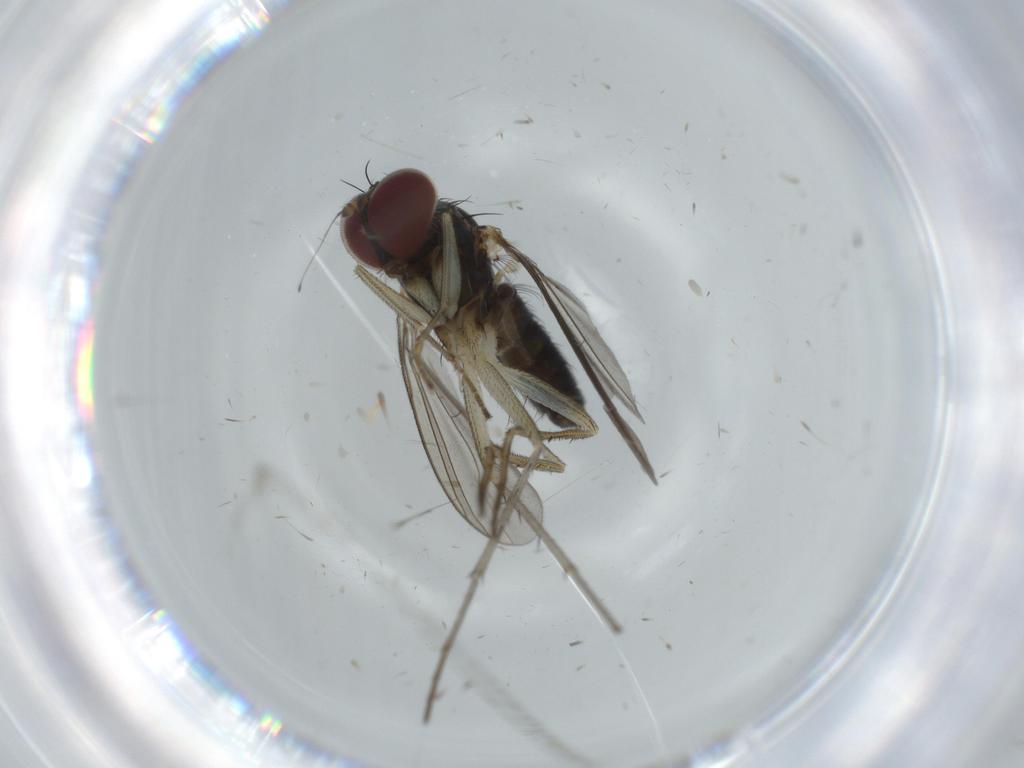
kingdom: Animalia
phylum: Arthropoda
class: Insecta
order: Diptera
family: Dolichopodidae
